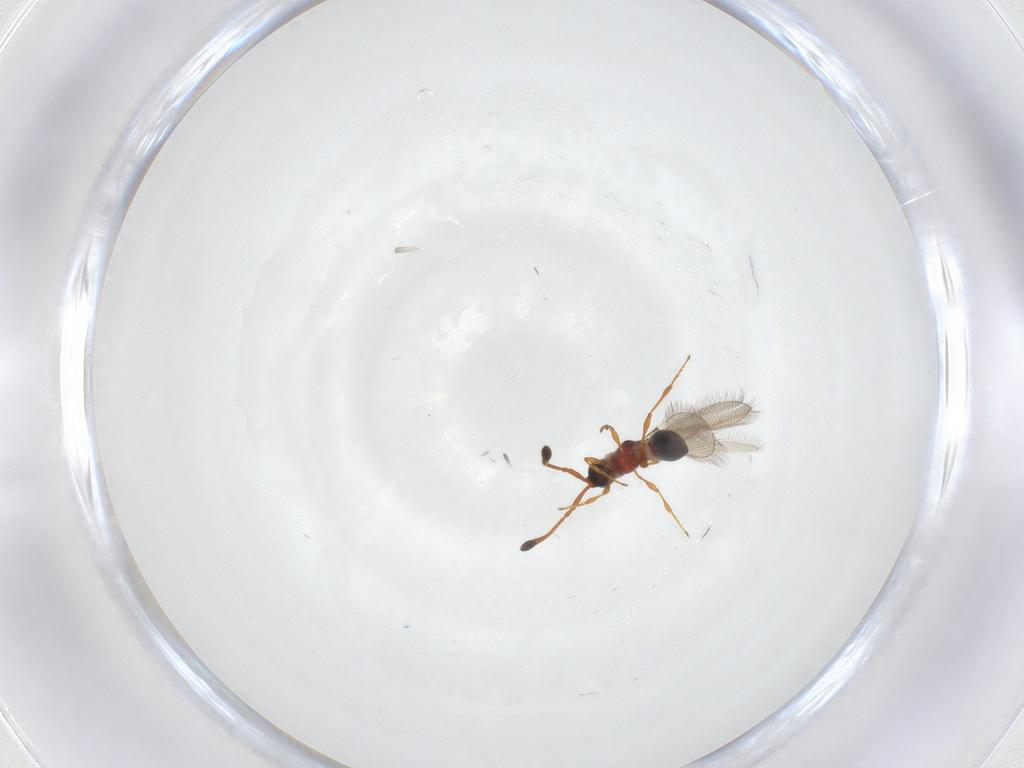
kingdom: Animalia
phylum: Arthropoda
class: Insecta
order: Hymenoptera
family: Diapriidae
